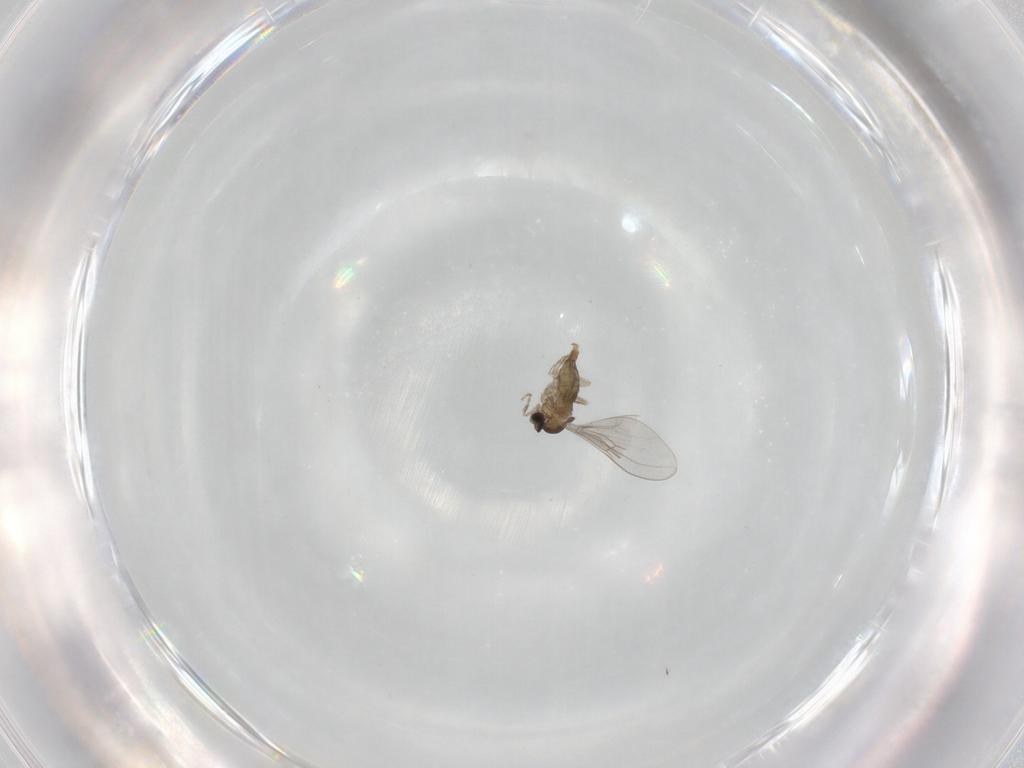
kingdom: Animalia
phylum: Arthropoda
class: Insecta
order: Diptera
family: Cecidomyiidae
